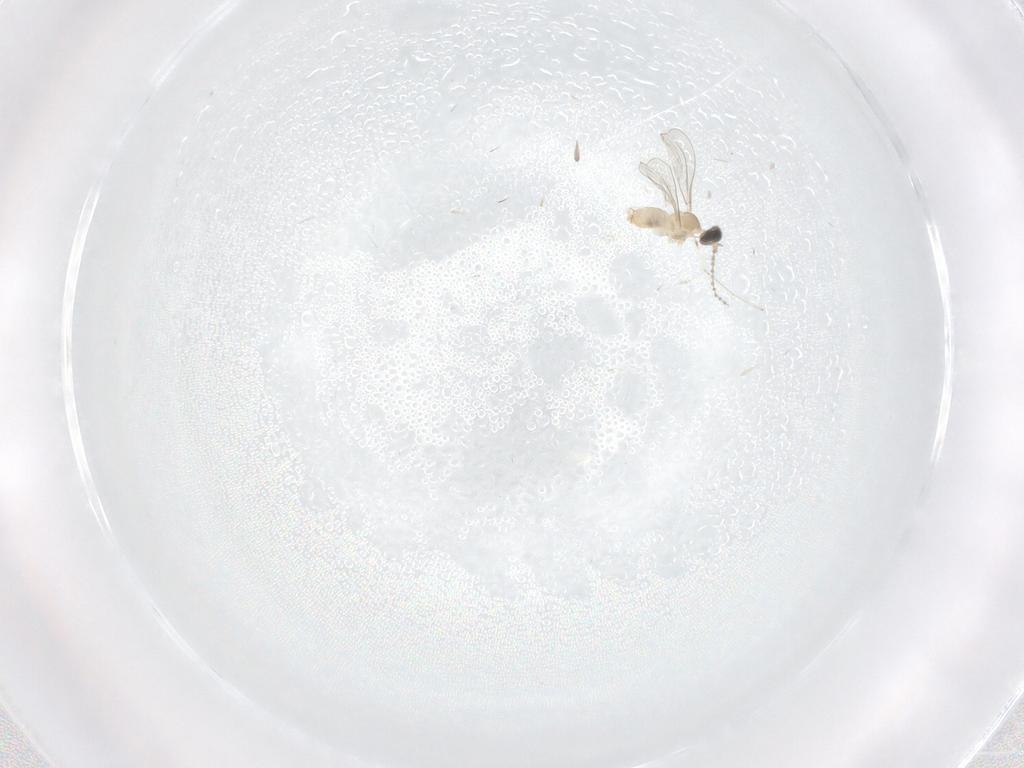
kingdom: Animalia
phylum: Arthropoda
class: Insecta
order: Diptera
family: Cecidomyiidae
